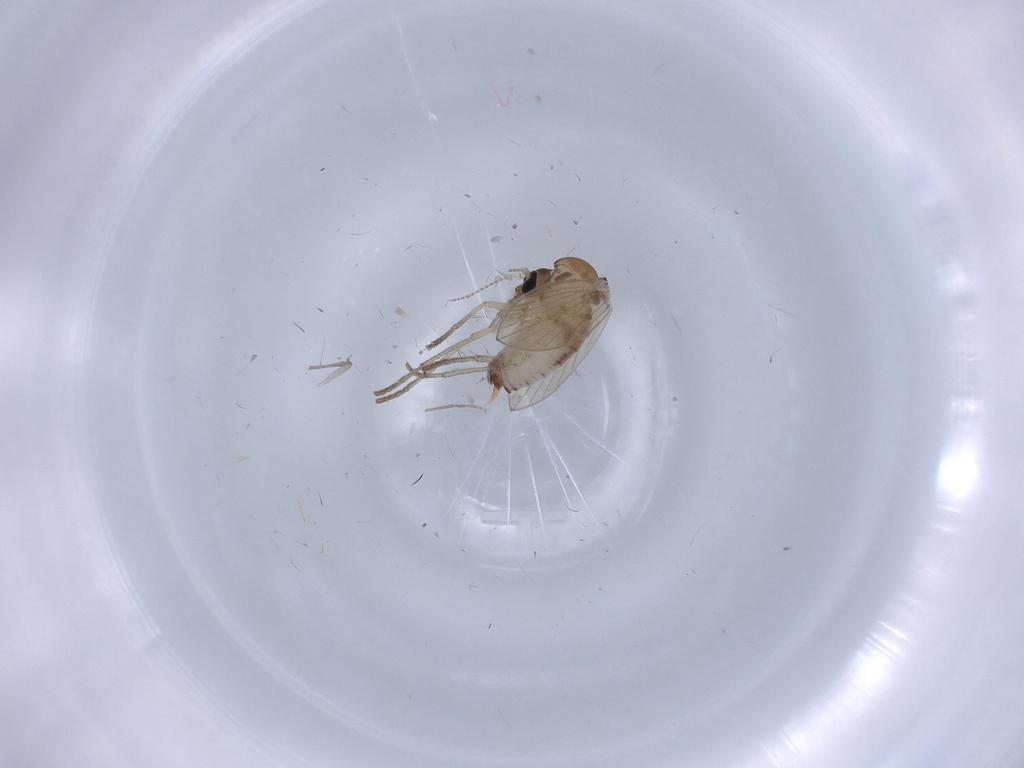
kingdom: Animalia
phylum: Arthropoda
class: Insecta
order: Diptera
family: Psychodidae
